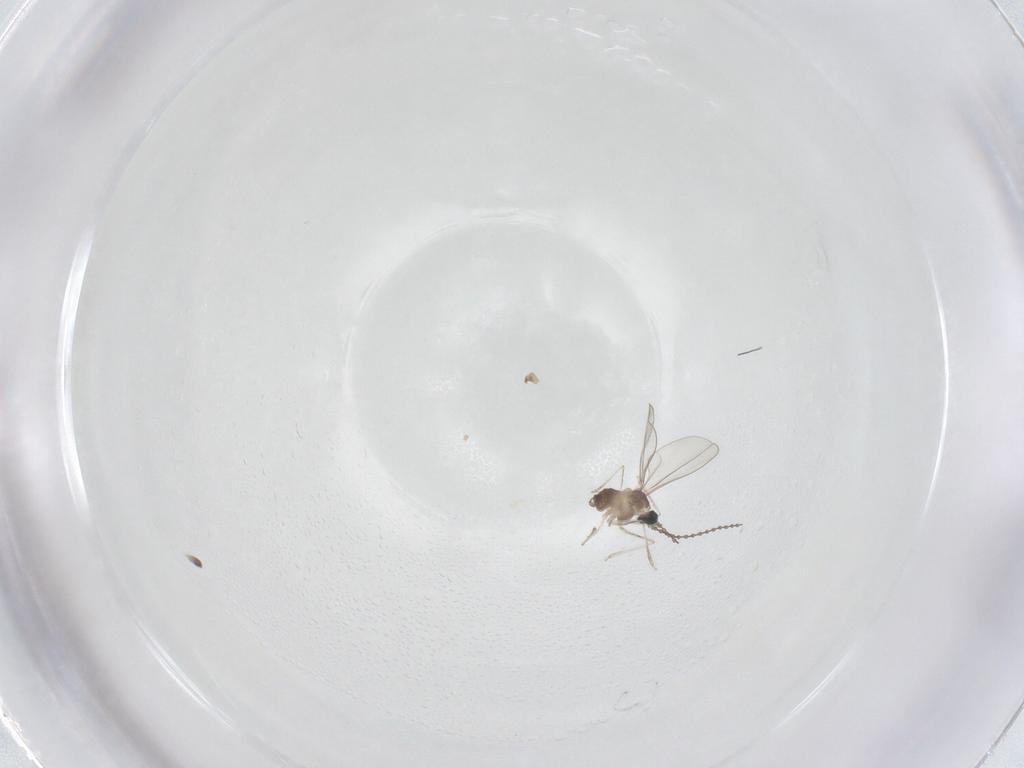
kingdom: Animalia
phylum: Arthropoda
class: Insecta
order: Diptera
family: Sciaridae
